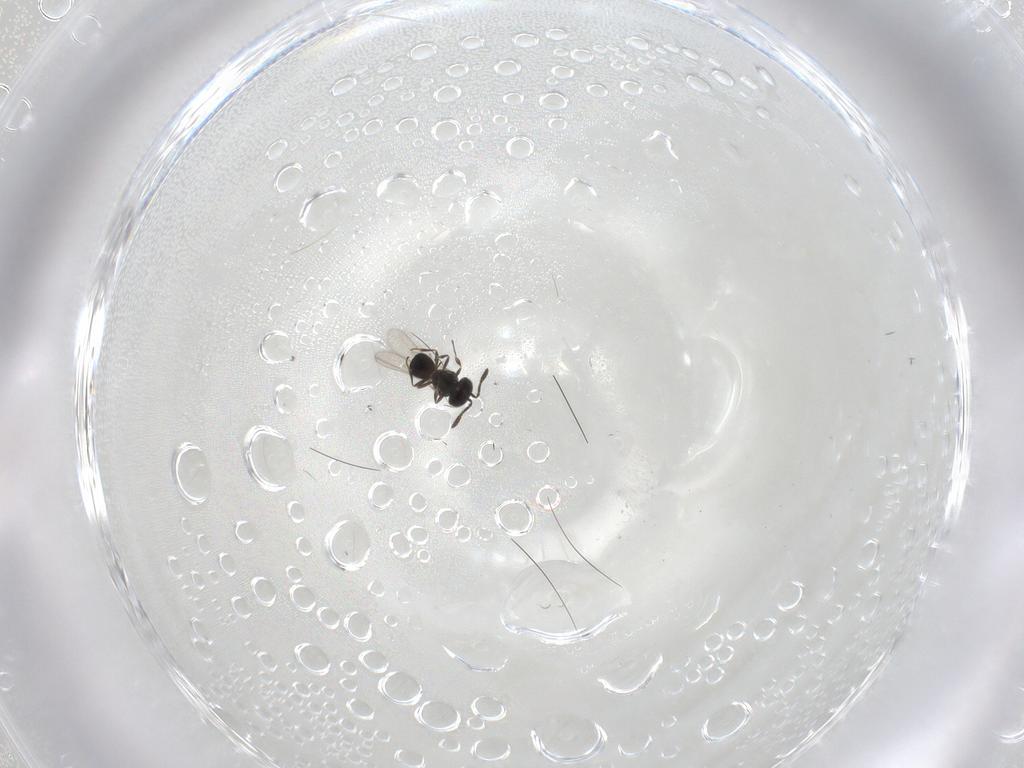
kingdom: Animalia
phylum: Arthropoda
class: Insecta
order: Hymenoptera
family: Scelionidae
